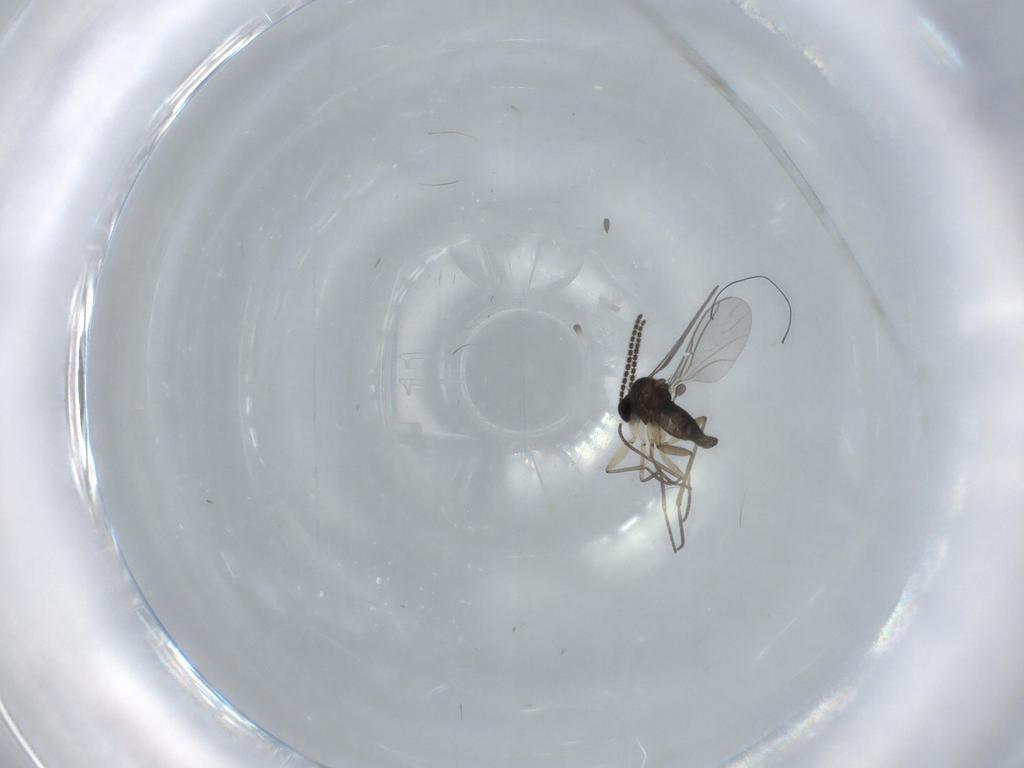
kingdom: Animalia
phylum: Arthropoda
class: Insecta
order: Diptera
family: Sciaridae
